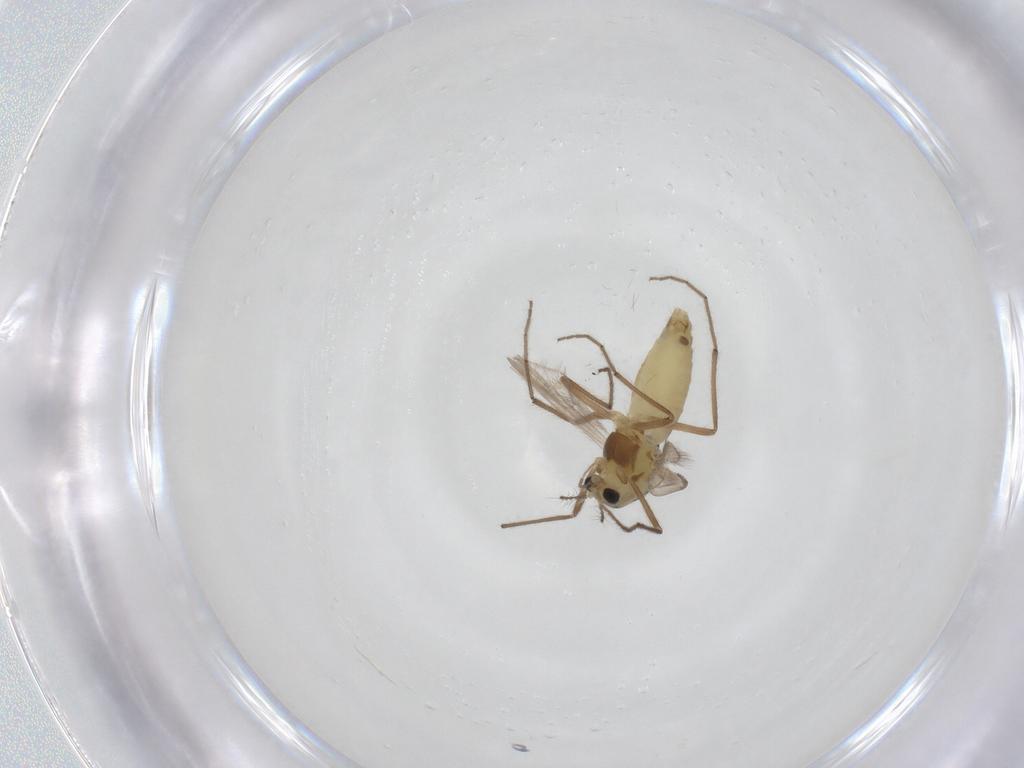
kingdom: Animalia
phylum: Arthropoda
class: Insecta
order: Diptera
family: Chironomidae
